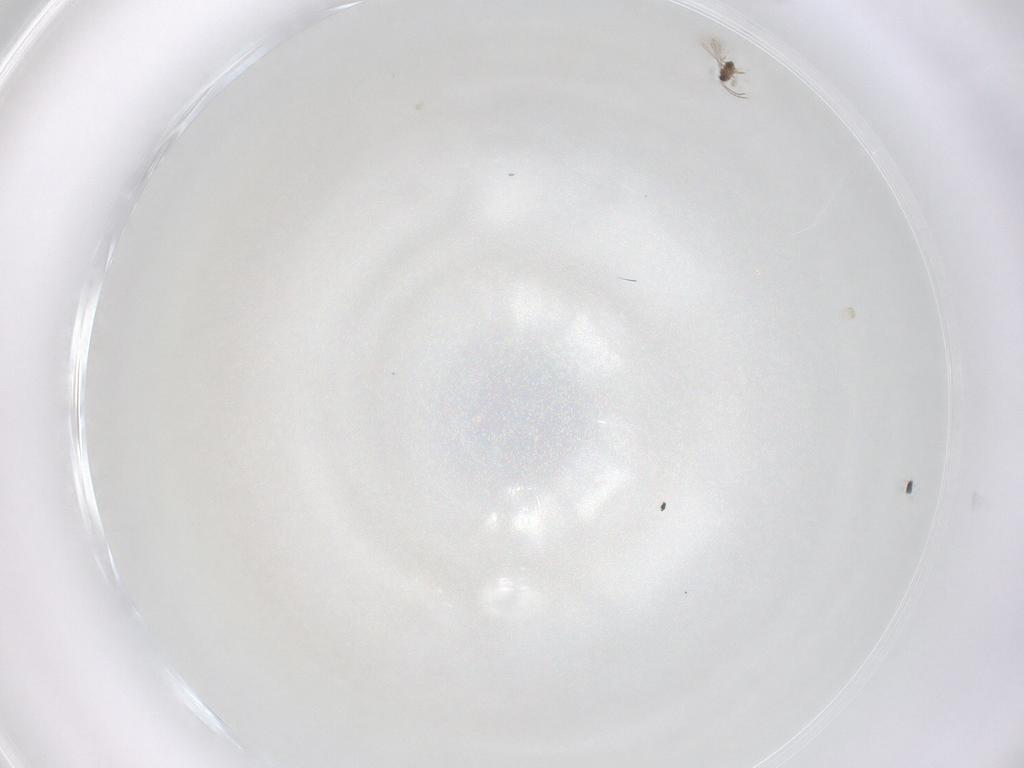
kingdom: Animalia
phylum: Arthropoda
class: Insecta
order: Hymenoptera
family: Mymaridae
